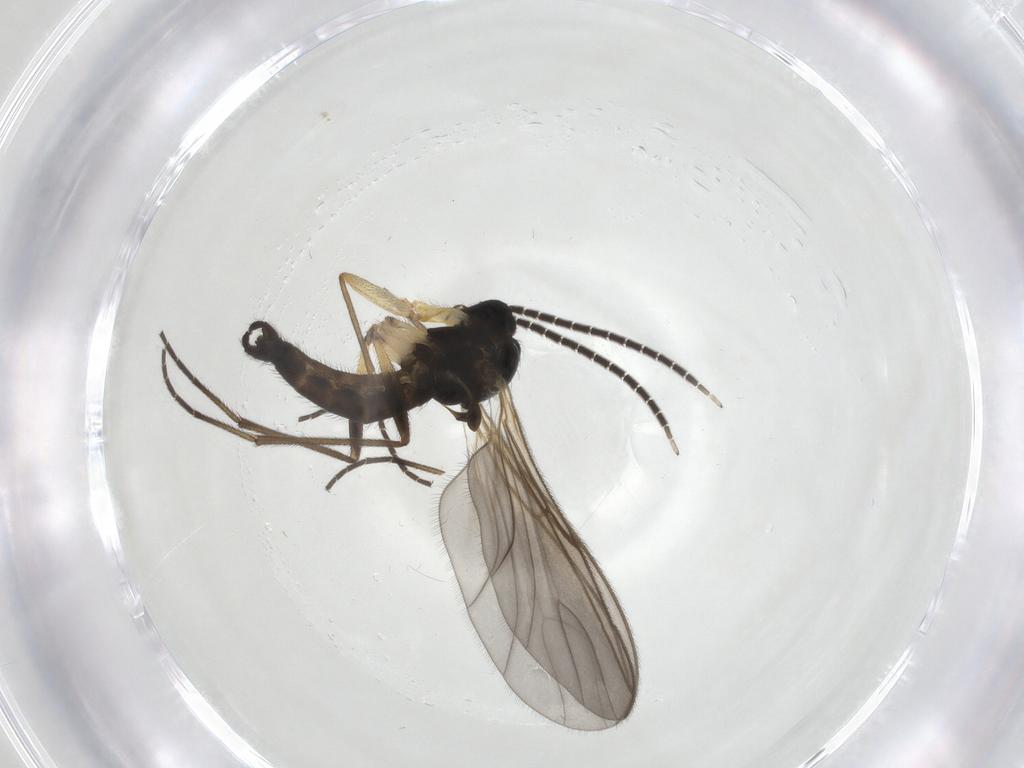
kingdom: Animalia
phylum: Arthropoda
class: Insecta
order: Diptera
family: Sciaridae
